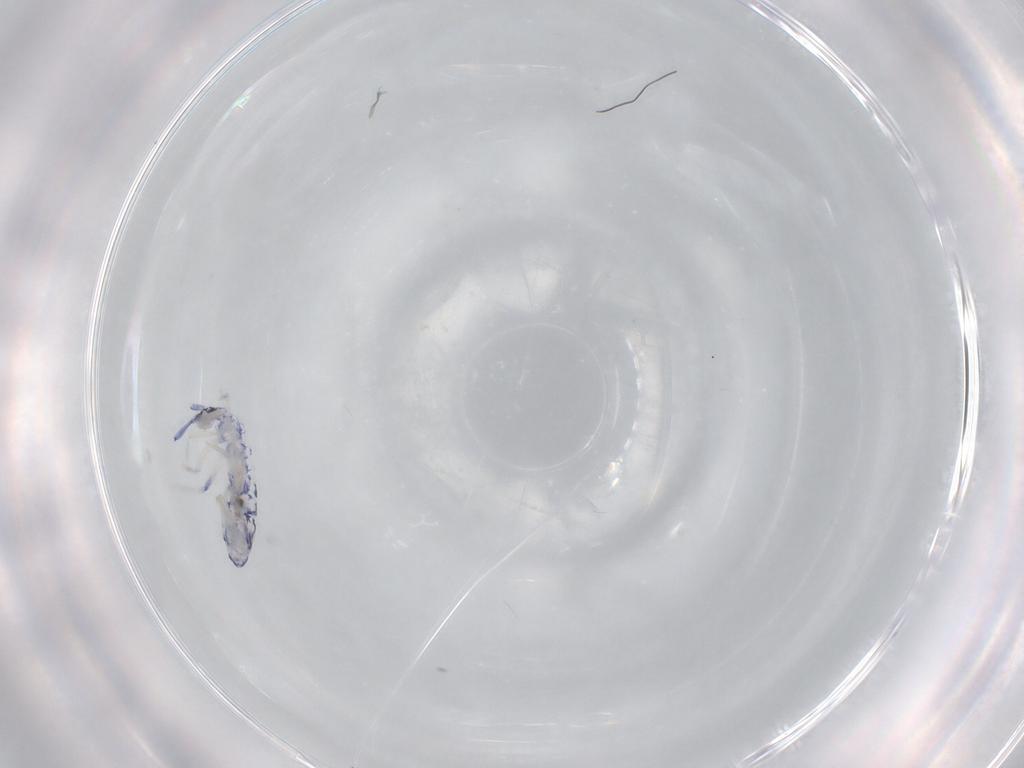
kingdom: Animalia
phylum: Arthropoda
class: Collembola
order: Entomobryomorpha
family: Entomobryidae
